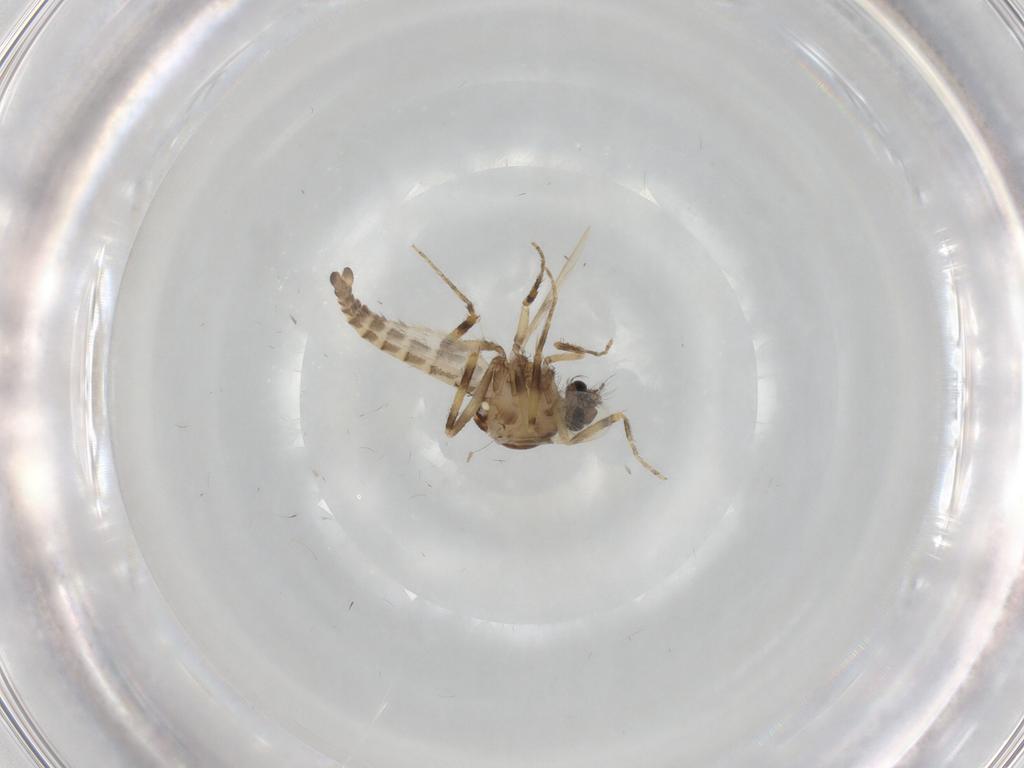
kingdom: Animalia
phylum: Arthropoda
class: Insecta
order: Diptera
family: Ceratopogonidae
